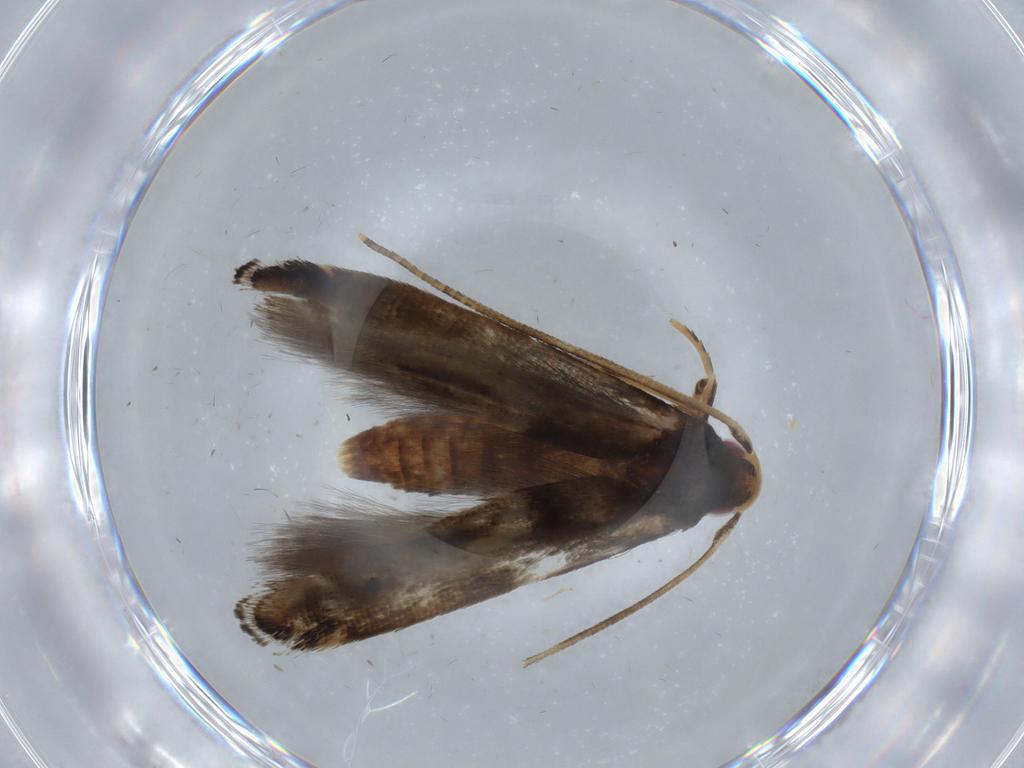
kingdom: Animalia
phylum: Arthropoda
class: Insecta
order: Lepidoptera
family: Momphidae
